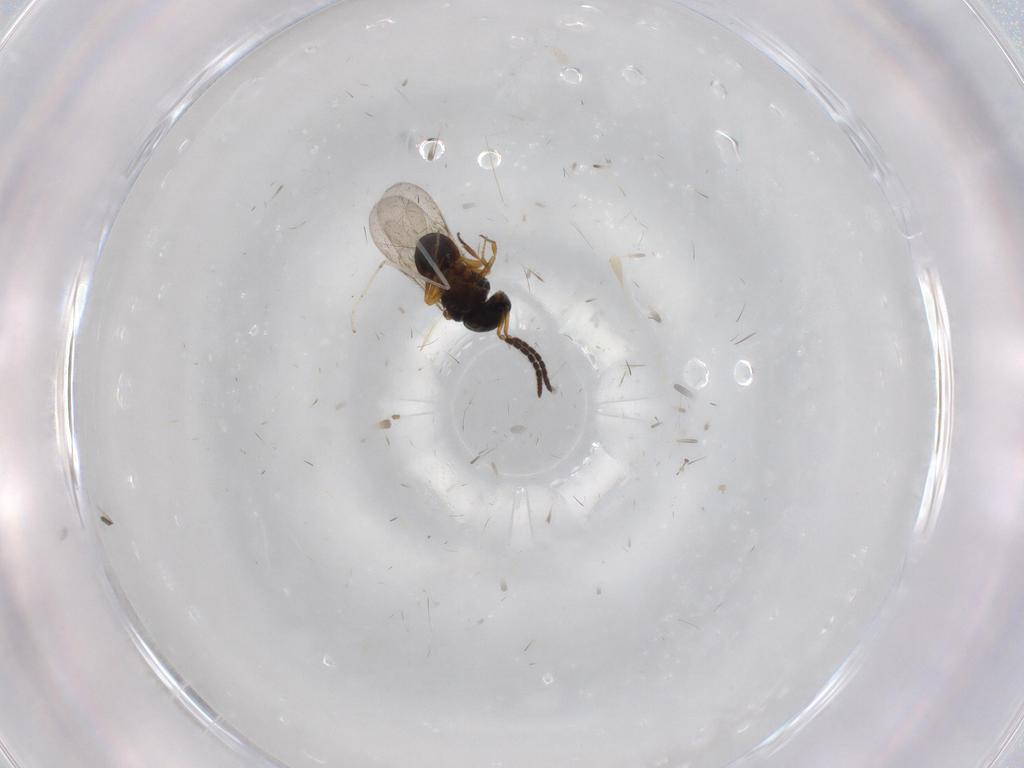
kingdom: Animalia
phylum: Arthropoda
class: Insecta
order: Hymenoptera
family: Scelionidae
